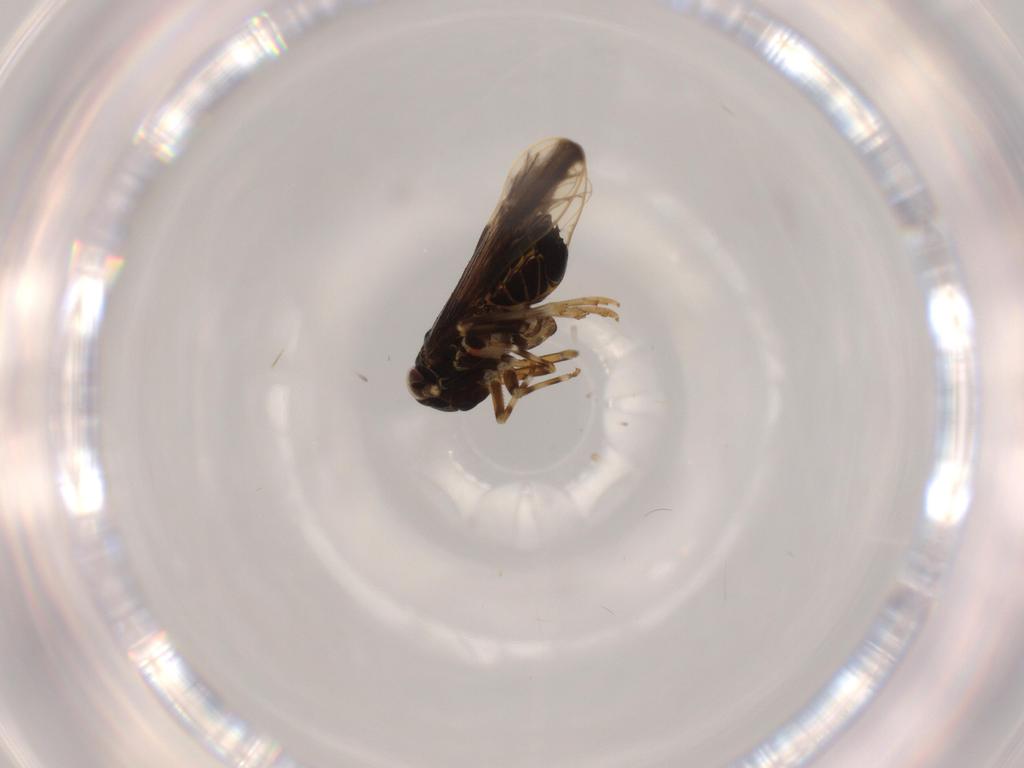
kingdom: Animalia
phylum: Arthropoda
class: Insecta
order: Hemiptera
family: Delphacidae
